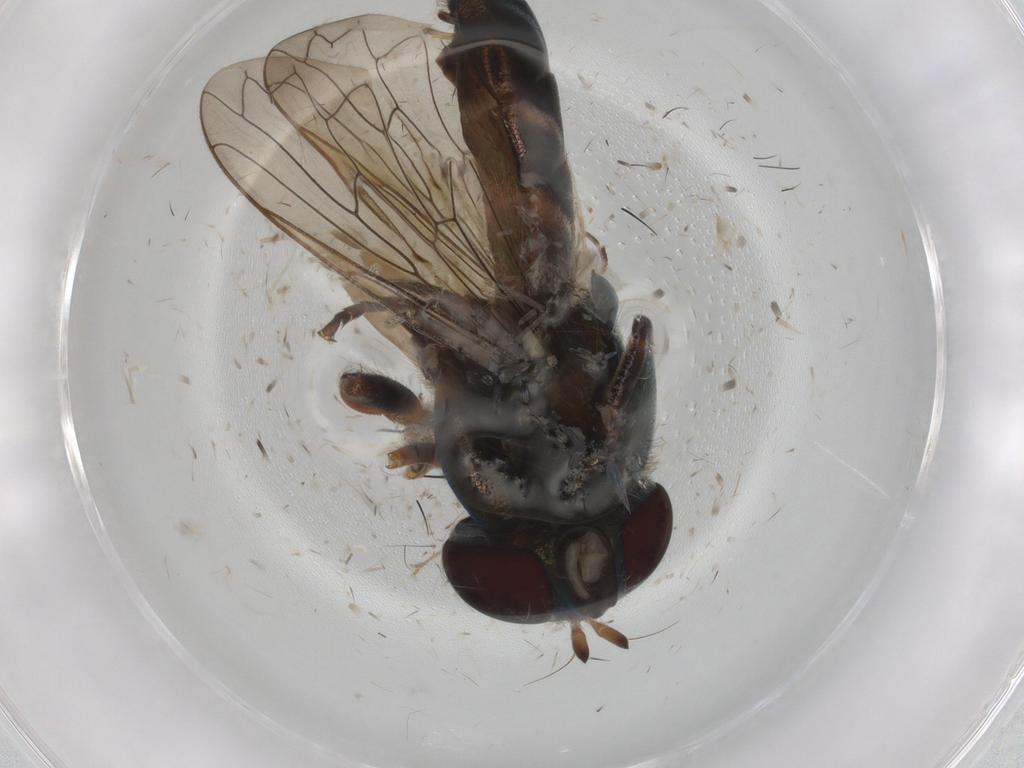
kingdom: Animalia
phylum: Arthropoda
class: Insecta
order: Diptera
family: Syrphidae
